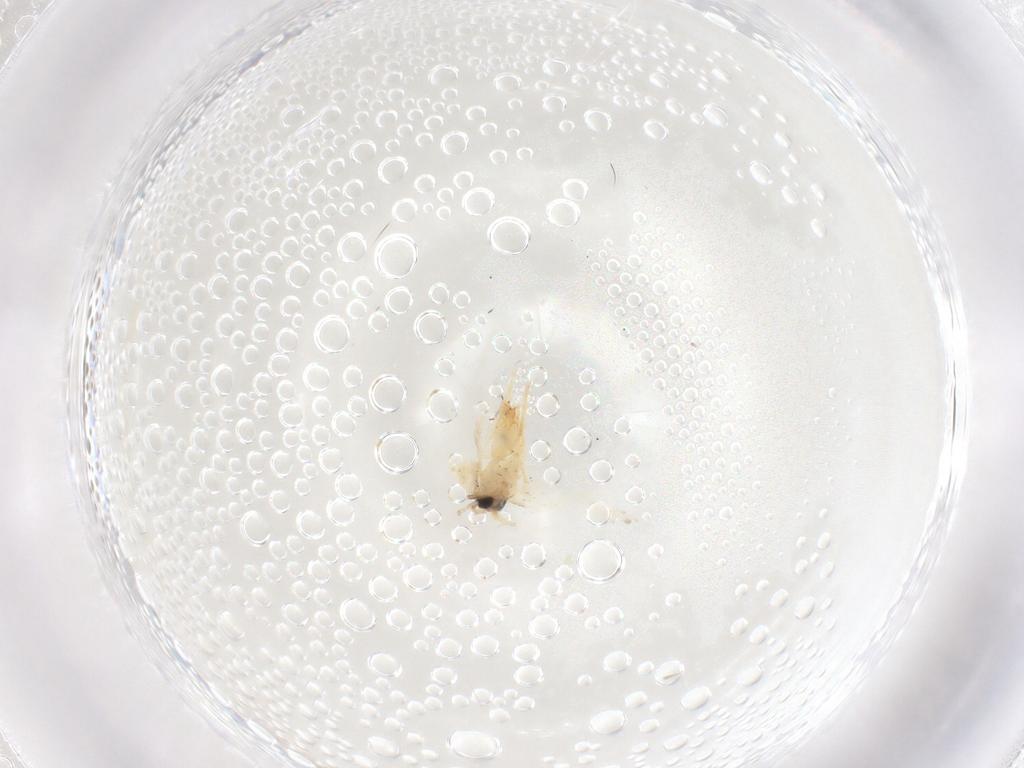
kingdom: Animalia
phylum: Arthropoda
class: Insecta
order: Lepidoptera
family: Crambidae
